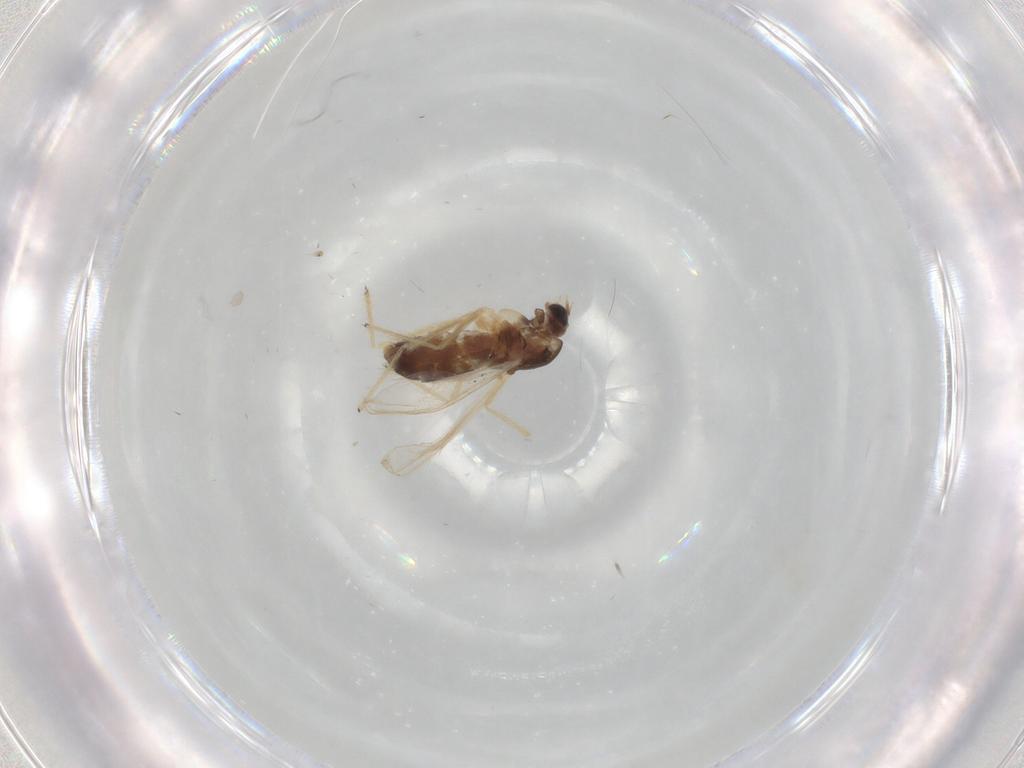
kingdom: Animalia
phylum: Arthropoda
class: Insecta
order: Diptera
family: Chironomidae
